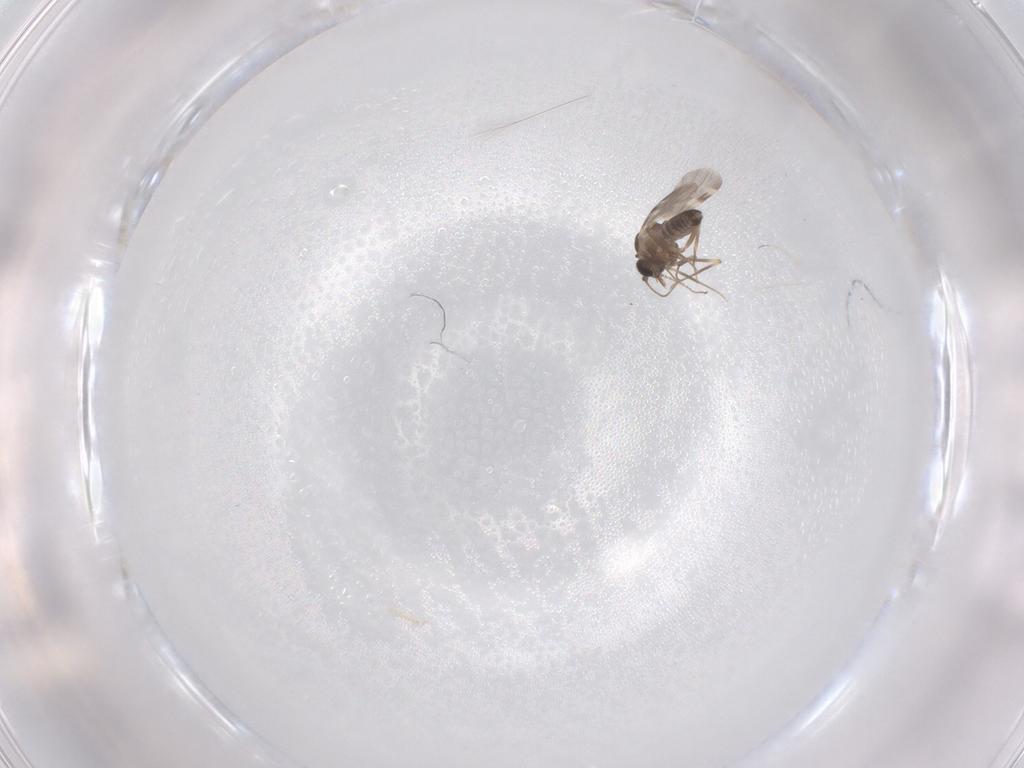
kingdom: Animalia
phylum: Arthropoda
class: Insecta
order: Diptera
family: Ceratopogonidae
